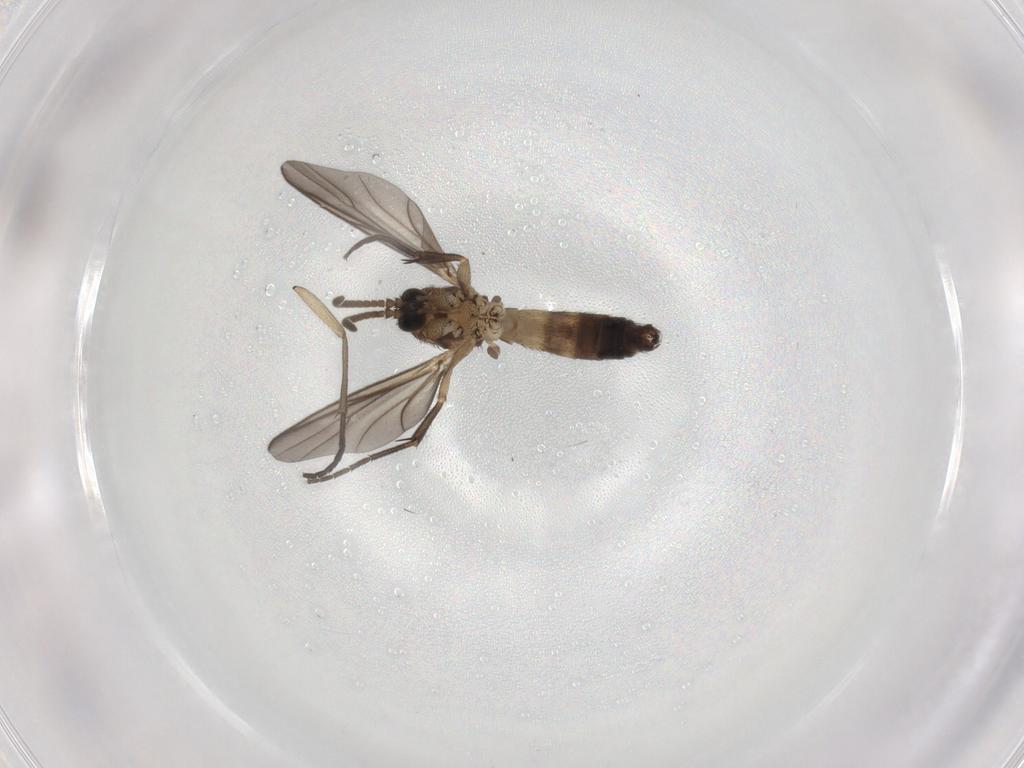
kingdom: Animalia
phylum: Arthropoda
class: Insecta
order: Diptera
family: Mycetophilidae
